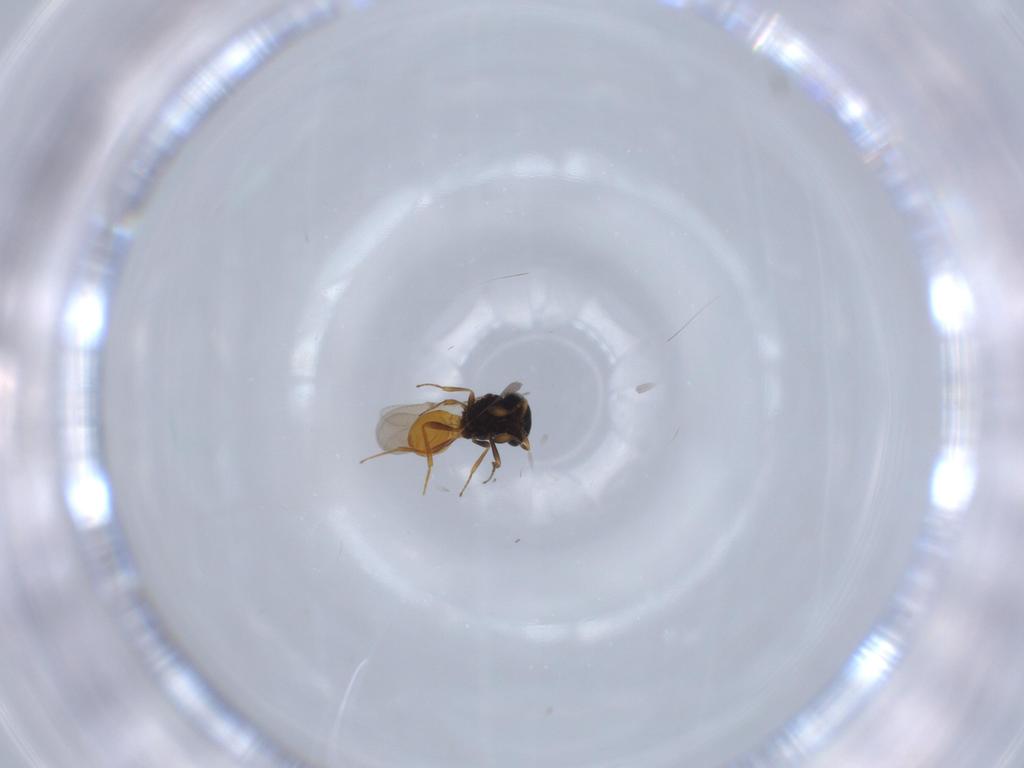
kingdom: Animalia
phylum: Arthropoda
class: Insecta
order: Hymenoptera
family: Scelionidae
